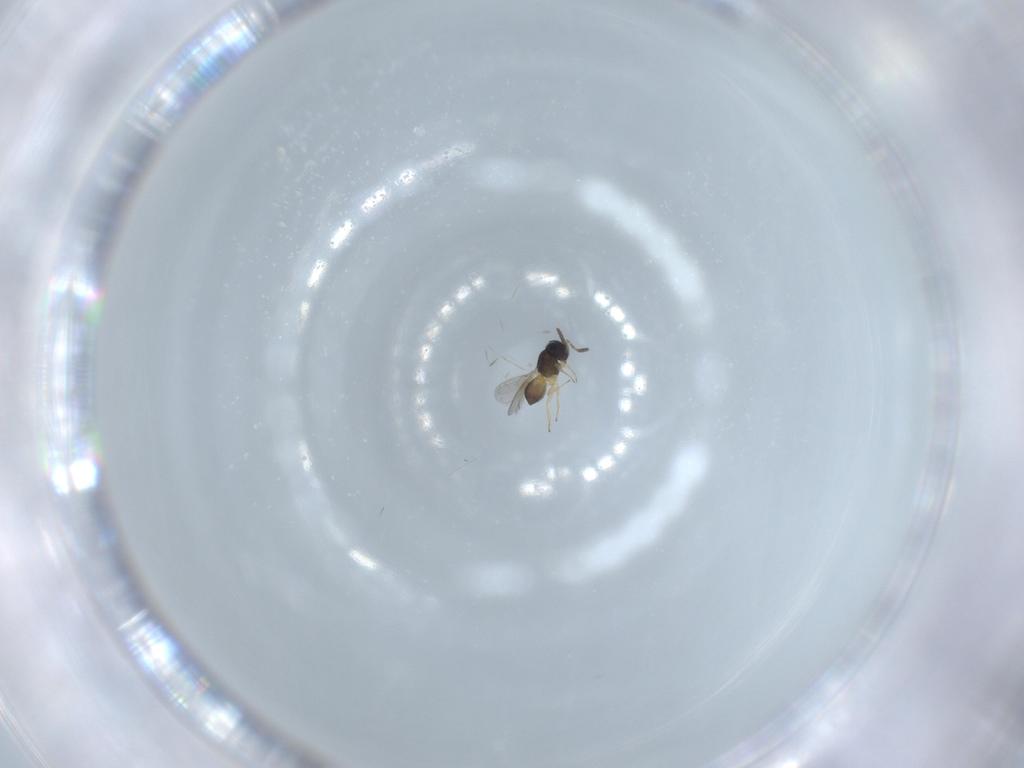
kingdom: Animalia
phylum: Arthropoda
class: Insecta
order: Hymenoptera
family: Scelionidae
